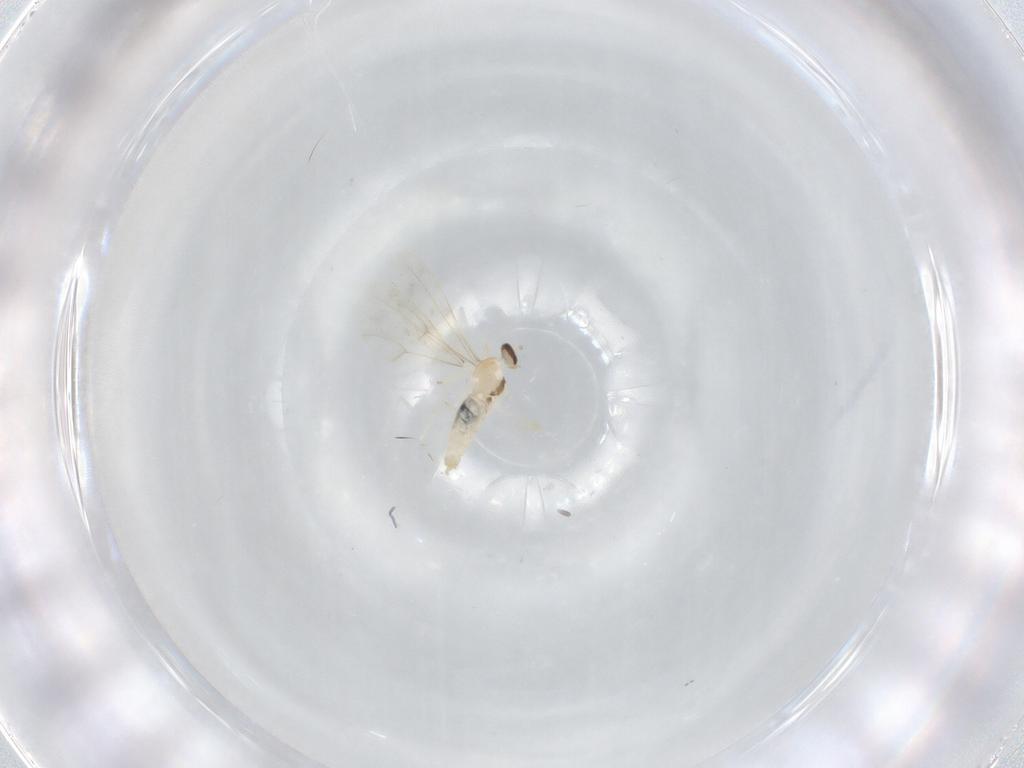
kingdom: Animalia
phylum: Arthropoda
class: Insecta
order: Diptera
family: Cecidomyiidae
